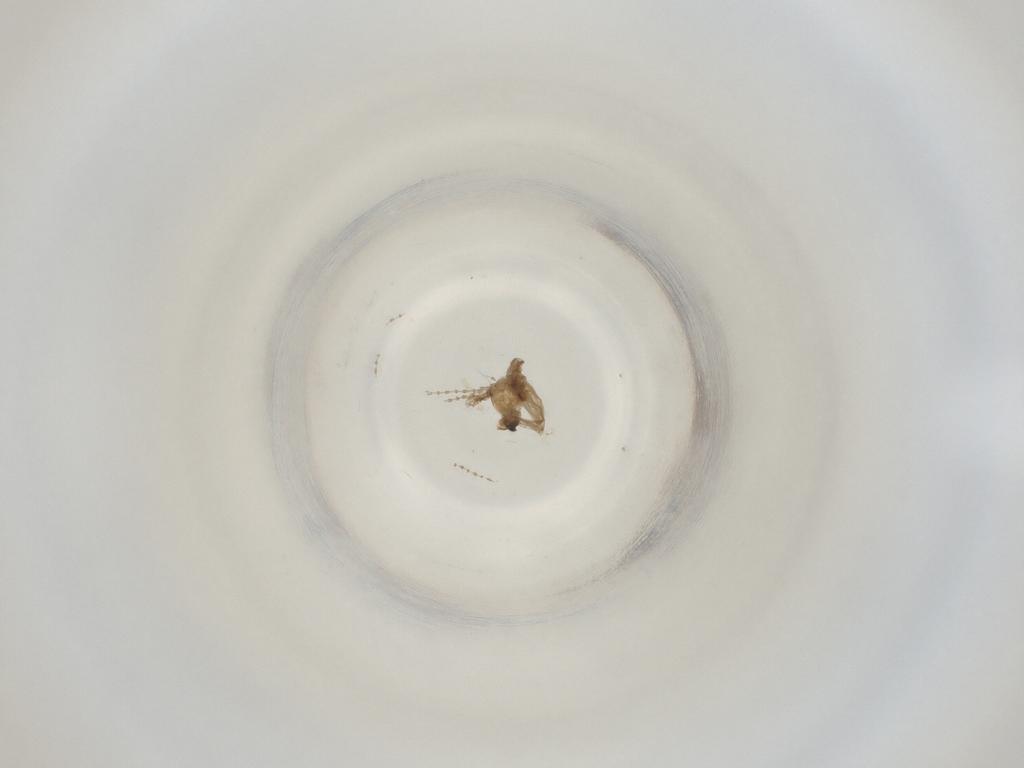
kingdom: Animalia
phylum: Arthropoda
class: Insecta
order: Diptera
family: Cecidomyiidae
